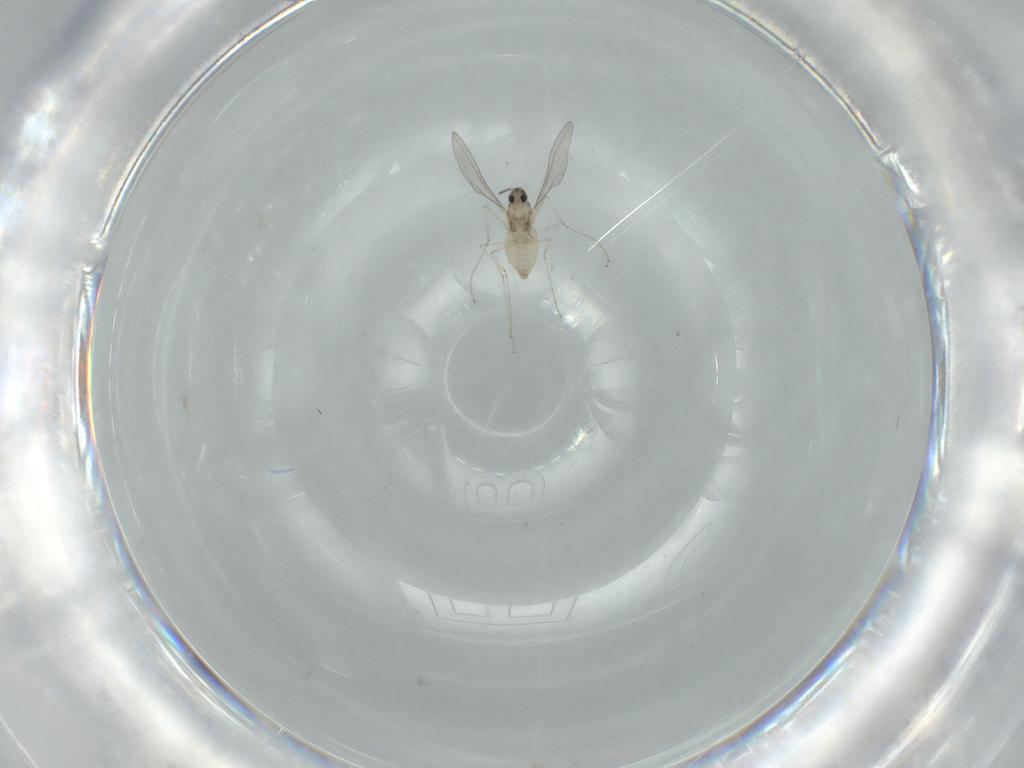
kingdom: Animalia
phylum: Arthropoda
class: Insecta
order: Diptera
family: Cecidomyiidae
